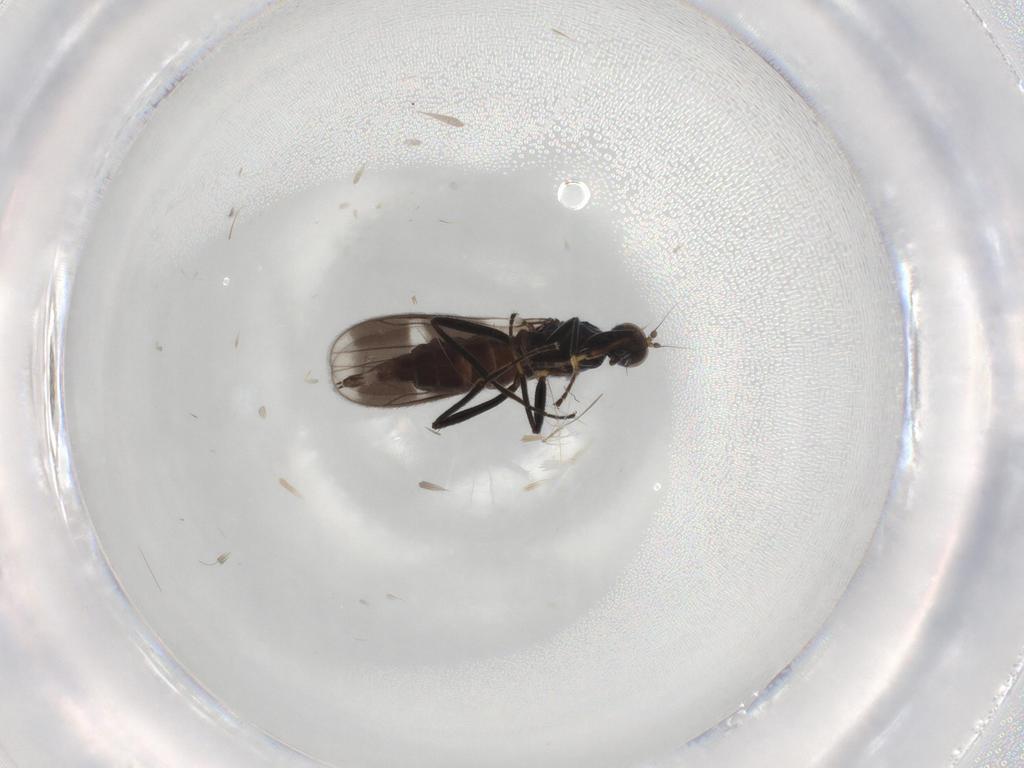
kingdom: Animalia
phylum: Arthropoda
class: Insecta
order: Diptera
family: Hybotidae
